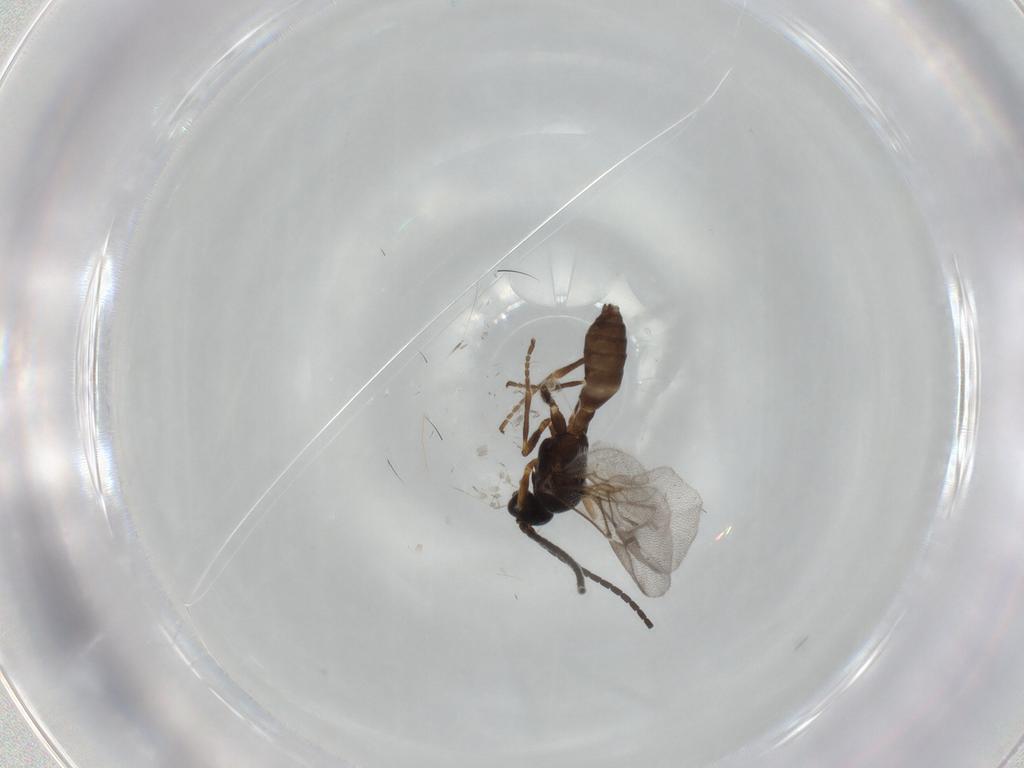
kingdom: Animalia
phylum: Arthropoda
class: Insecta
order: Hymenoptera
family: Braconidae
